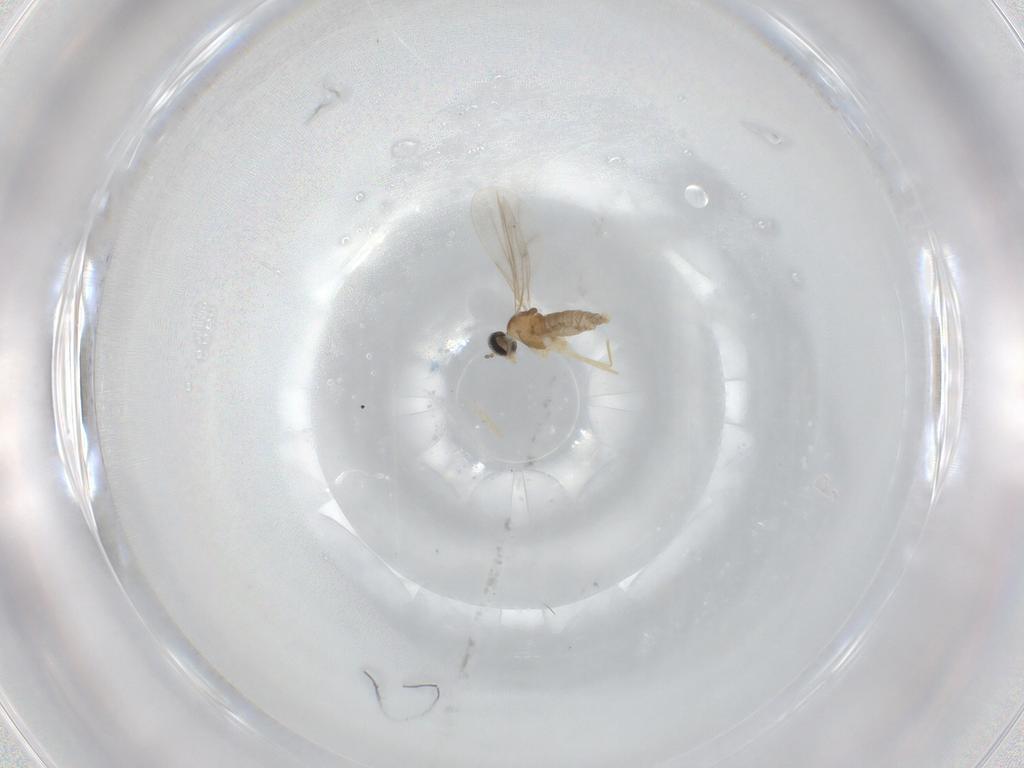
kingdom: Animalia
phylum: Arthropoda
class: Insecta
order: Diptera
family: Cecidomyiidae
